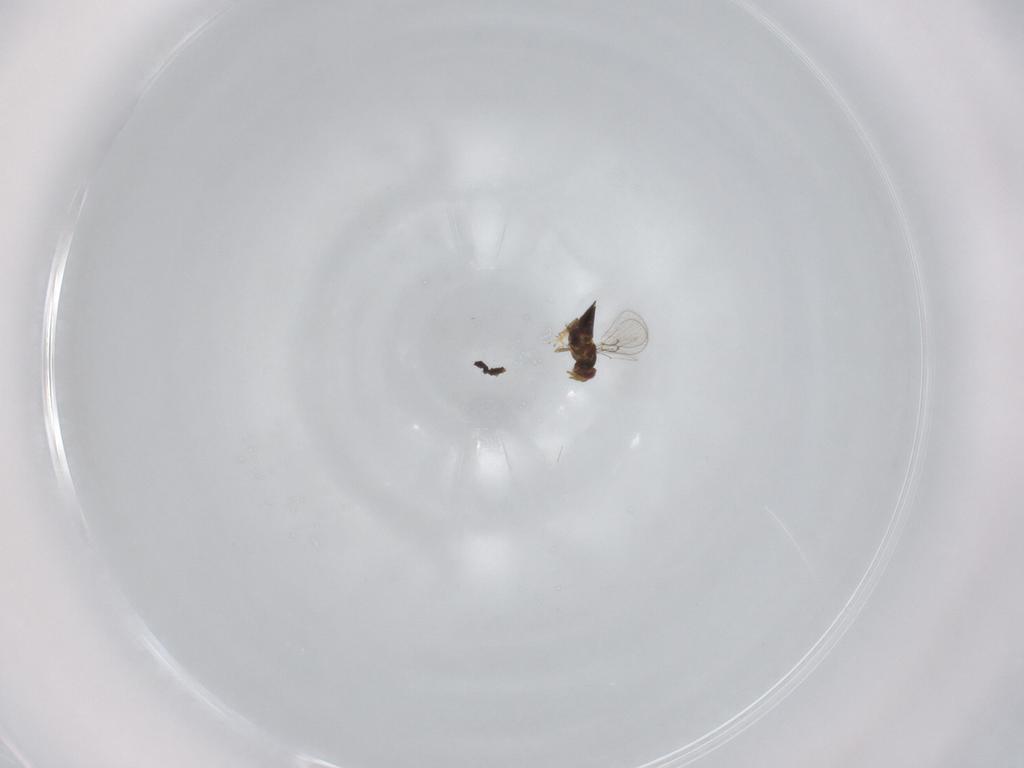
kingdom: Animalia
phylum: Arthropoda
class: Insecta
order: Hymenoptera
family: Trichogrammatidae
